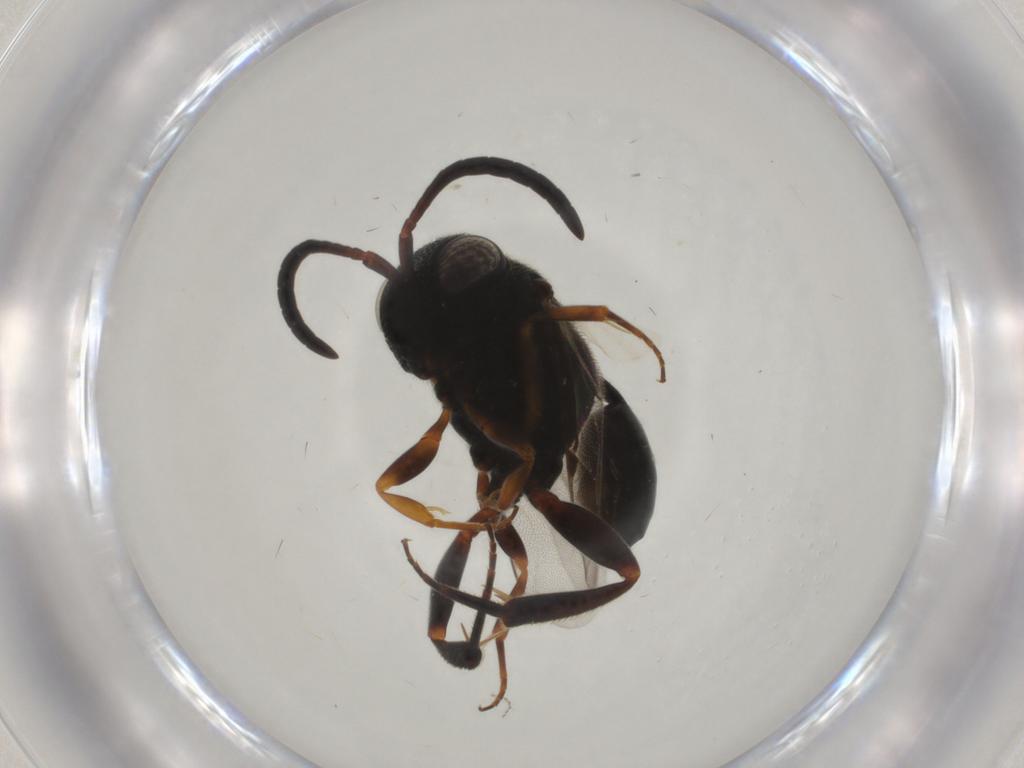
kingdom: Animalia
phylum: Arthropoda
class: Insecta
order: Hymenoptera
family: Evaniidae
